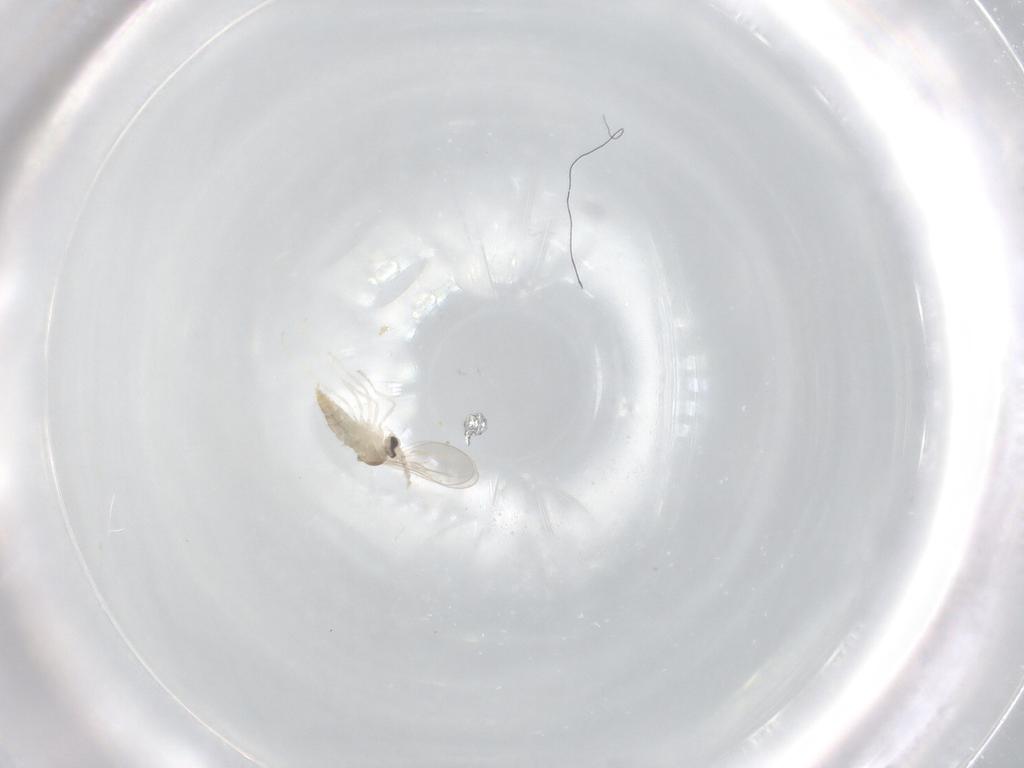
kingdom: Animalia
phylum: Arthropoda
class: Insecta
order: Diptera
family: Cecidomyiidae
